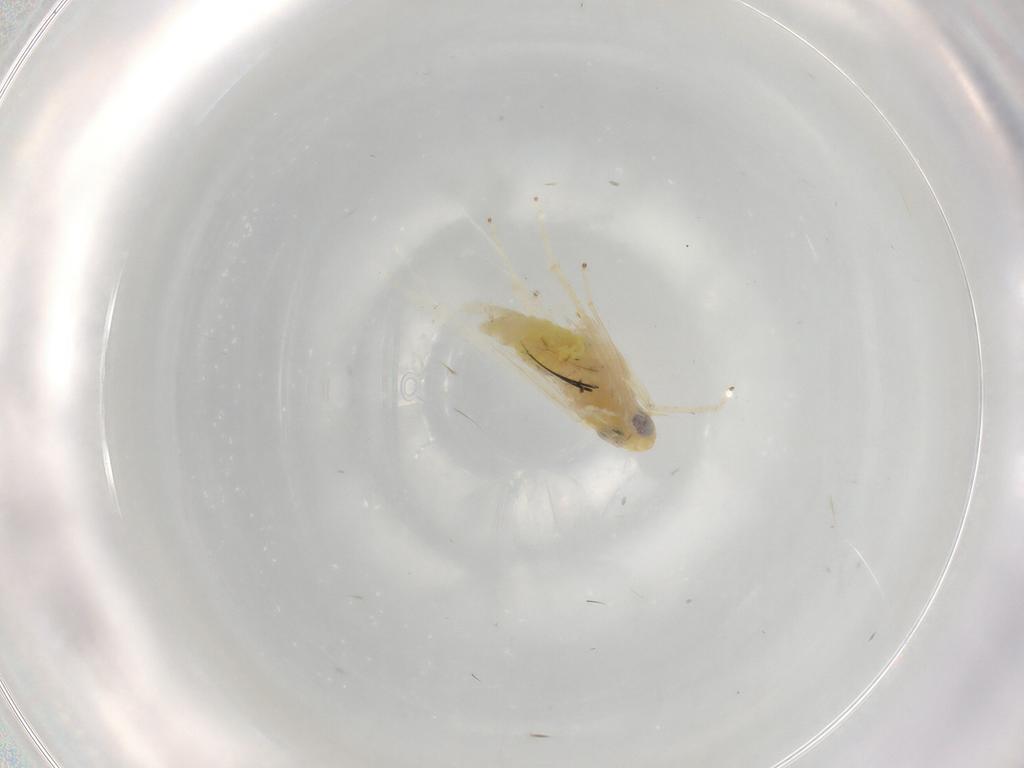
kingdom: Animalia
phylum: Arthropoda
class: Insecta
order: Hemiptera
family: Cicadellidae
